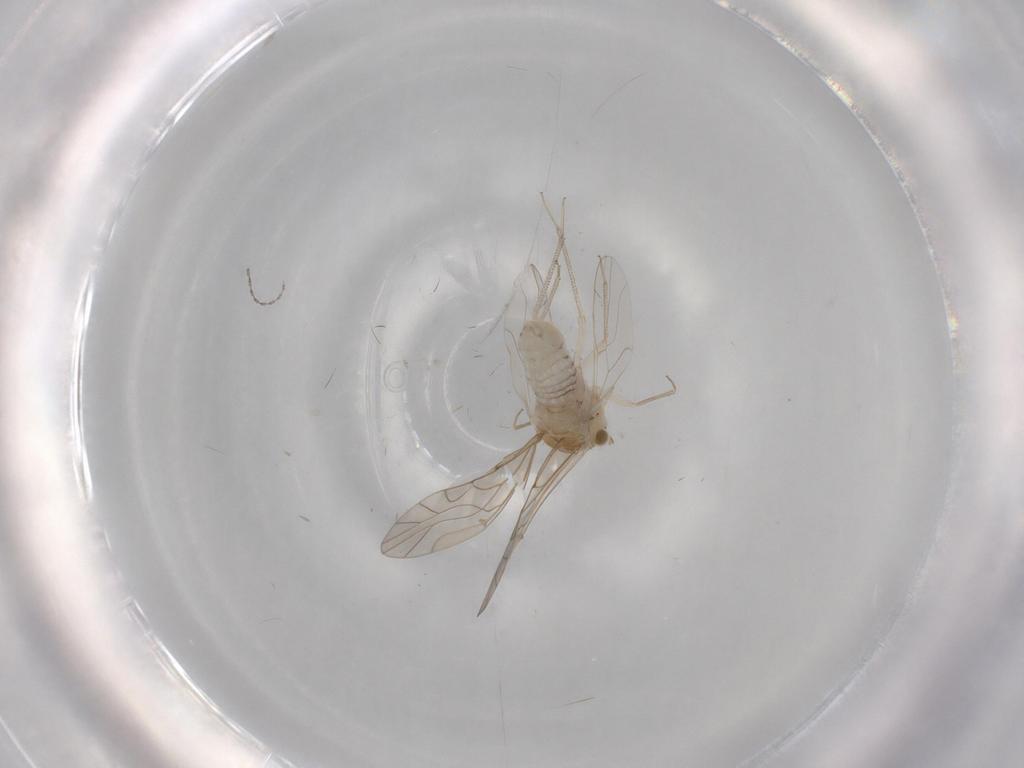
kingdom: Animalia
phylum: Arthropoda
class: Insecta
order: Psocodea
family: Lachesillidae
